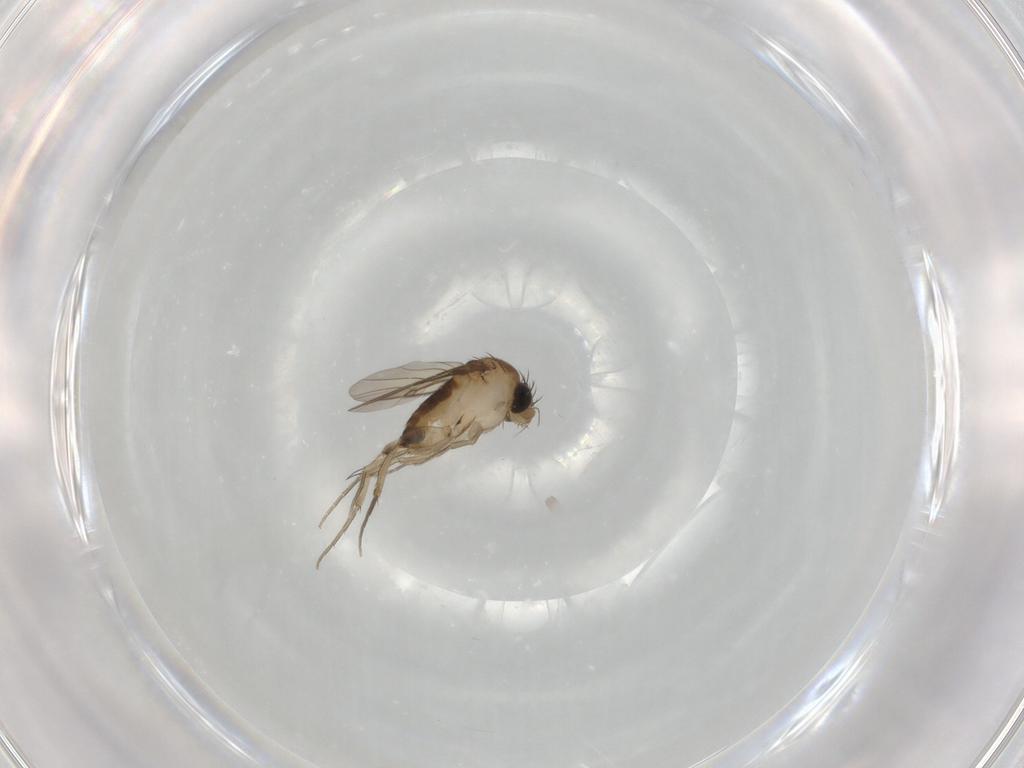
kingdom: Animalia
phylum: Arthropoda
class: Insecta
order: Diptera
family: Phoridae
